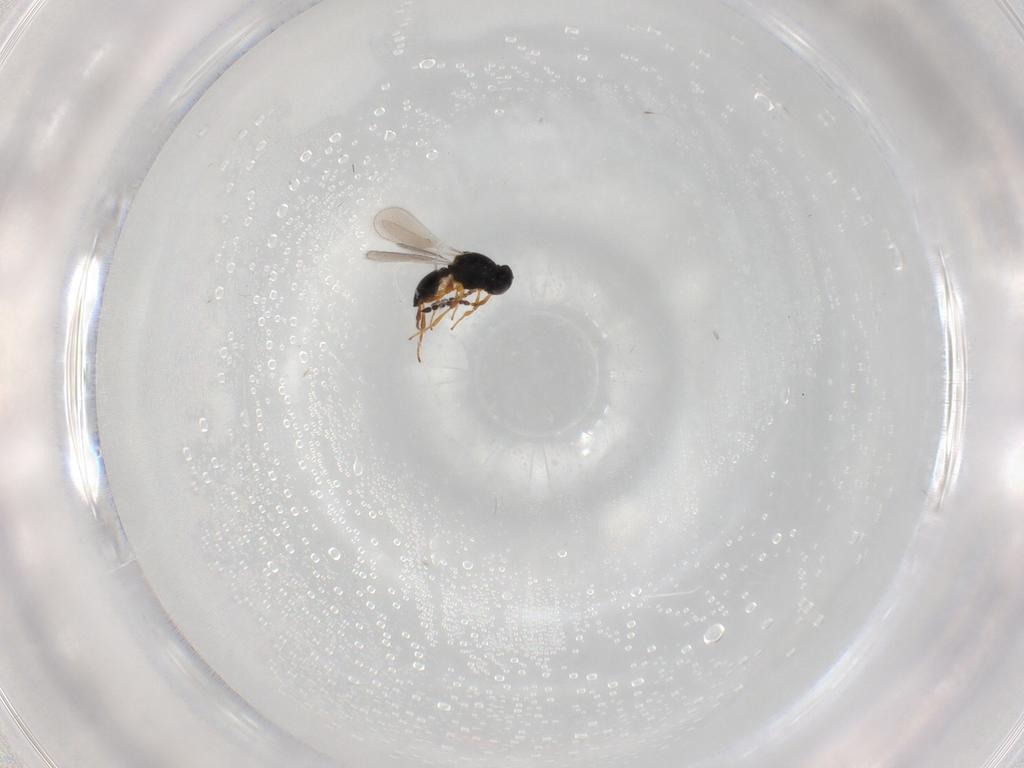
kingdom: Animalia
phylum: Arthropoda
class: Insecta
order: Hymenoptera
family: Platygastridae
